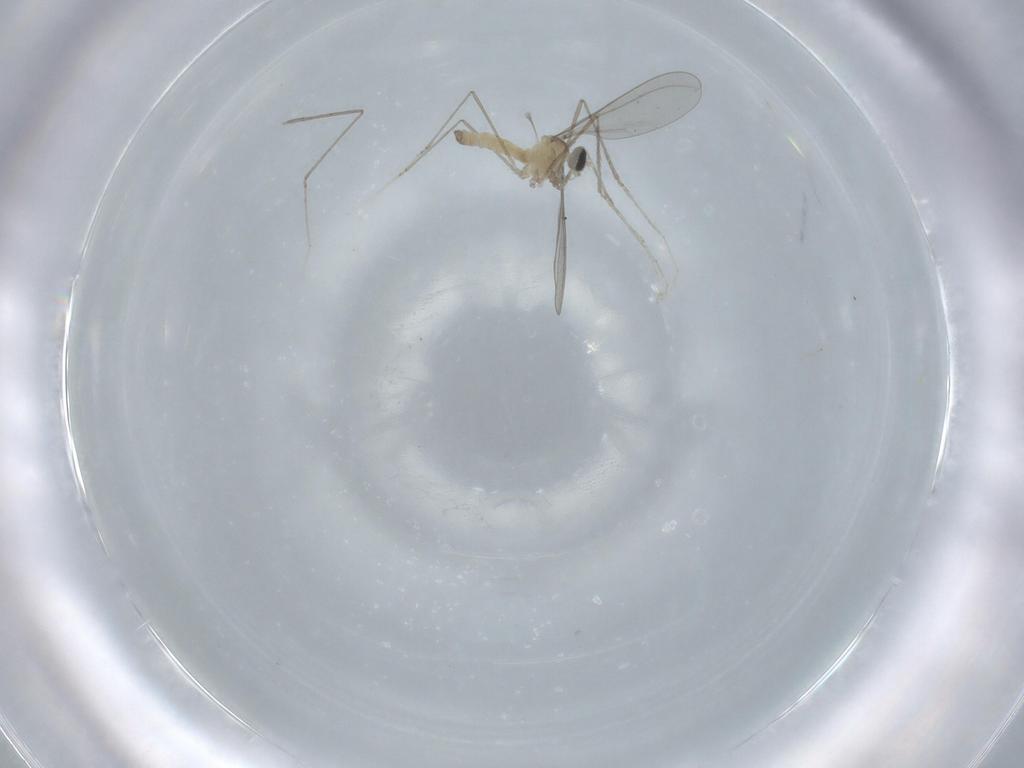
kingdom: Animalia
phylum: Arthropoda
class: Insecta
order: Diptera
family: Cecidomyiidae
